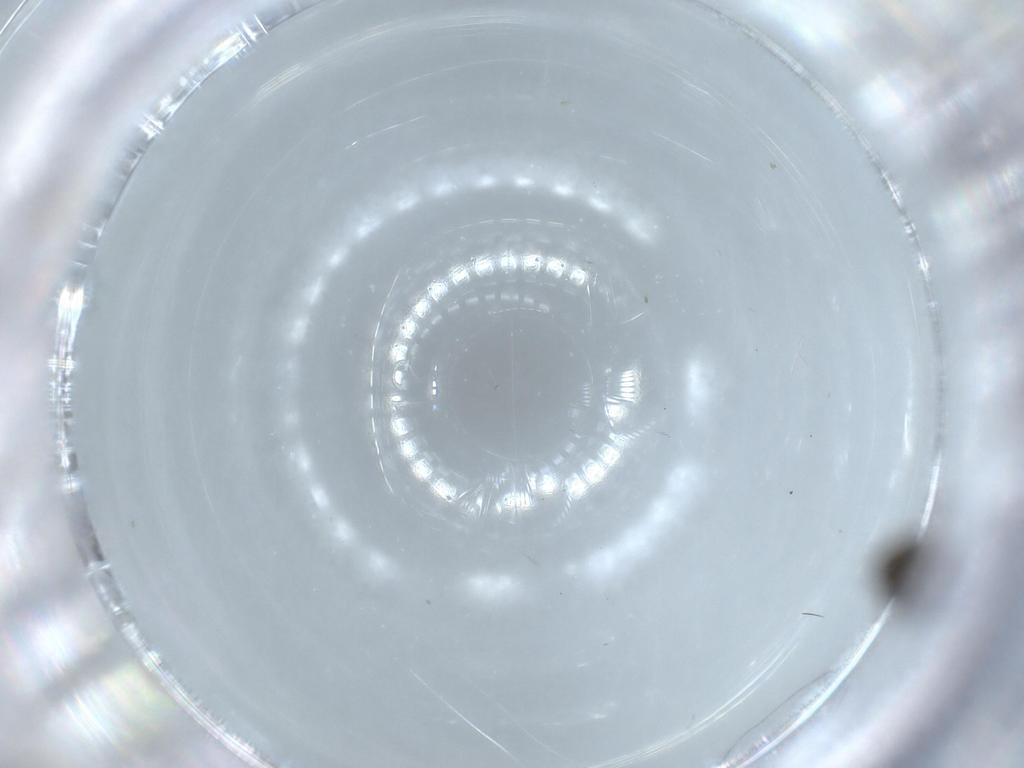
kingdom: Animalia
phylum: Arthropoda
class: Insecta
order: Diptera
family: Ceratopogonidae
